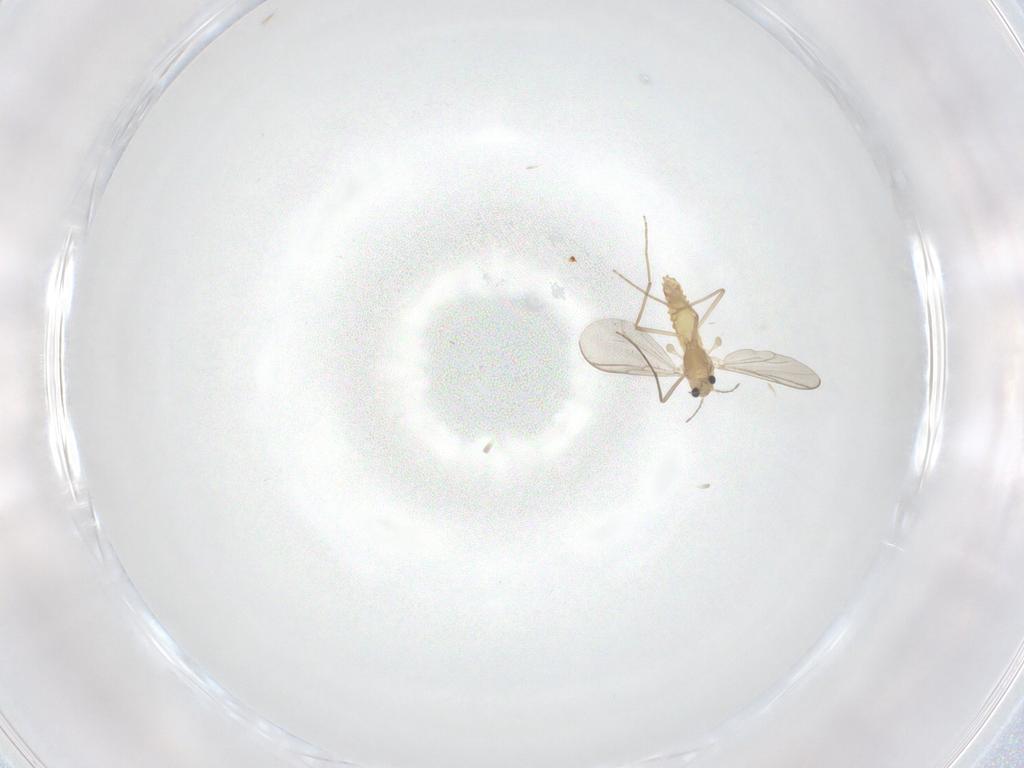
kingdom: Animalia
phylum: Arthropoda
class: Insecta
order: Diptera
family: Chironomidae
